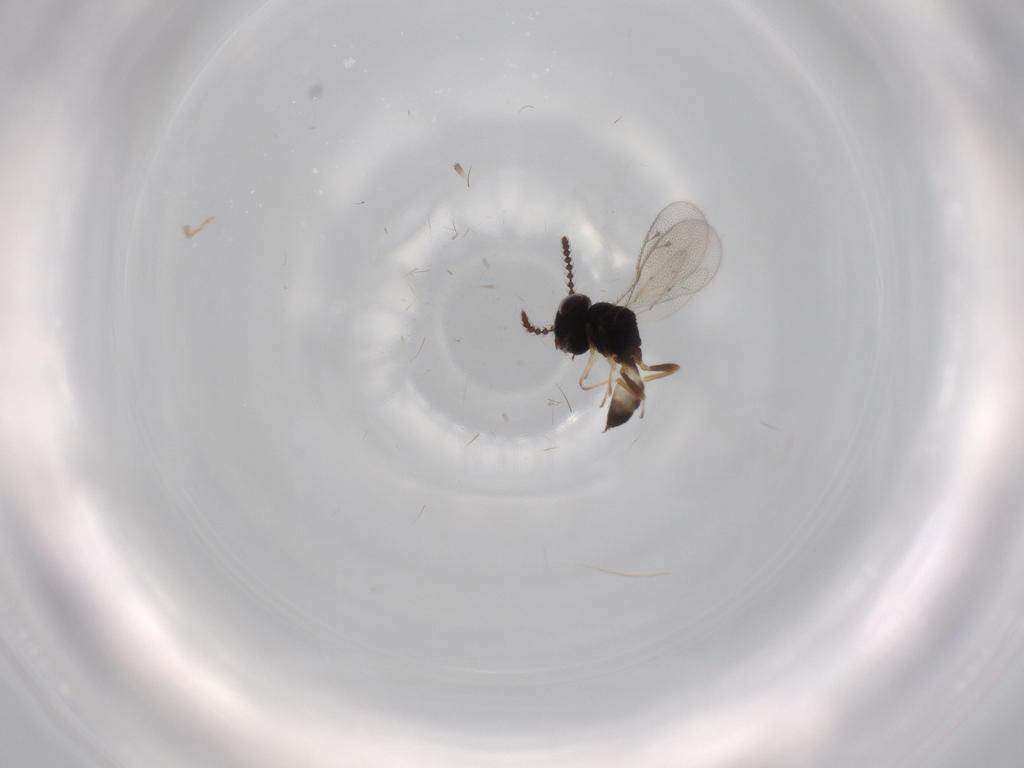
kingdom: Animalia
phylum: Arthropoda
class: Insecta
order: Hymenoptera
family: Pteromalidae
